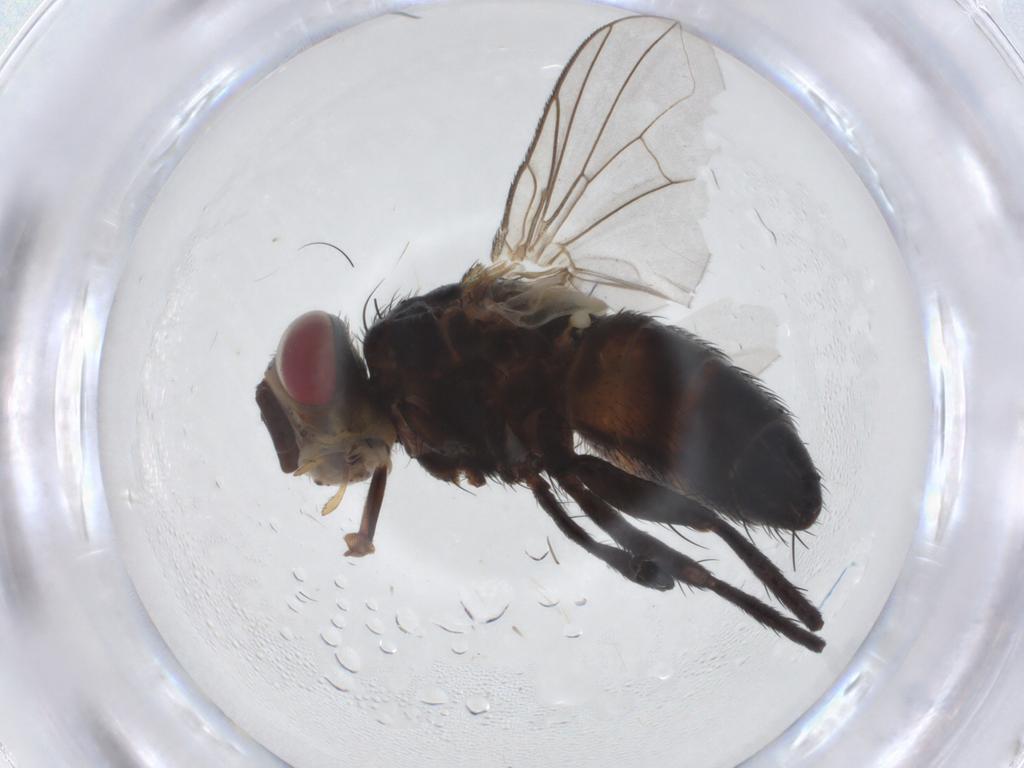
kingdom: Animalia
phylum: Arthropoda
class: Insecta
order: Diptera
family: Tachinidae
